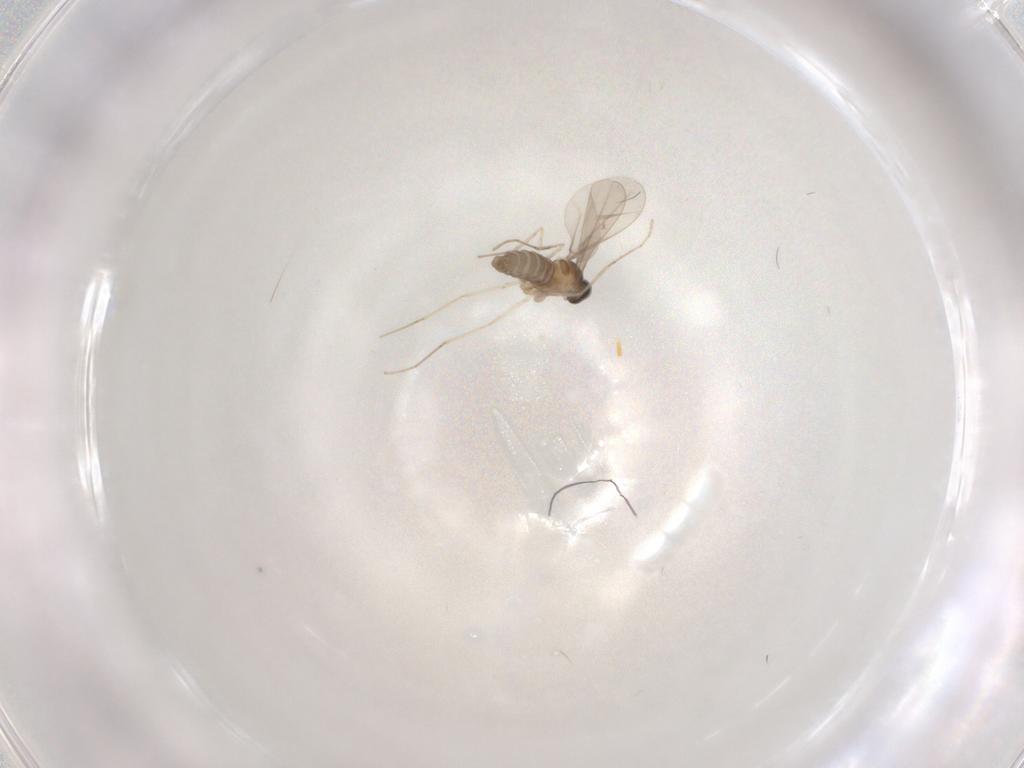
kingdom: Animalia
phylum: Arthropoda
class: Insecta
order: Diptera
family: Cecidomyiidae
